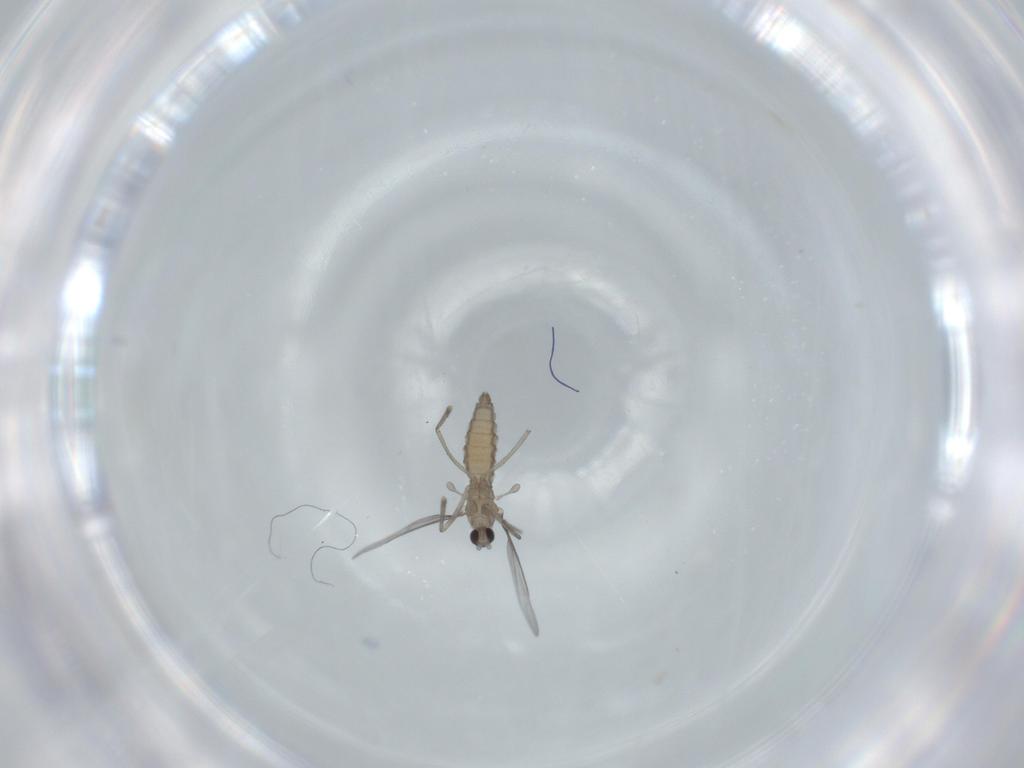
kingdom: Animalia
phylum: Arthropoda
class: Insecta
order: Diptera
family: Cecidomyiidae
